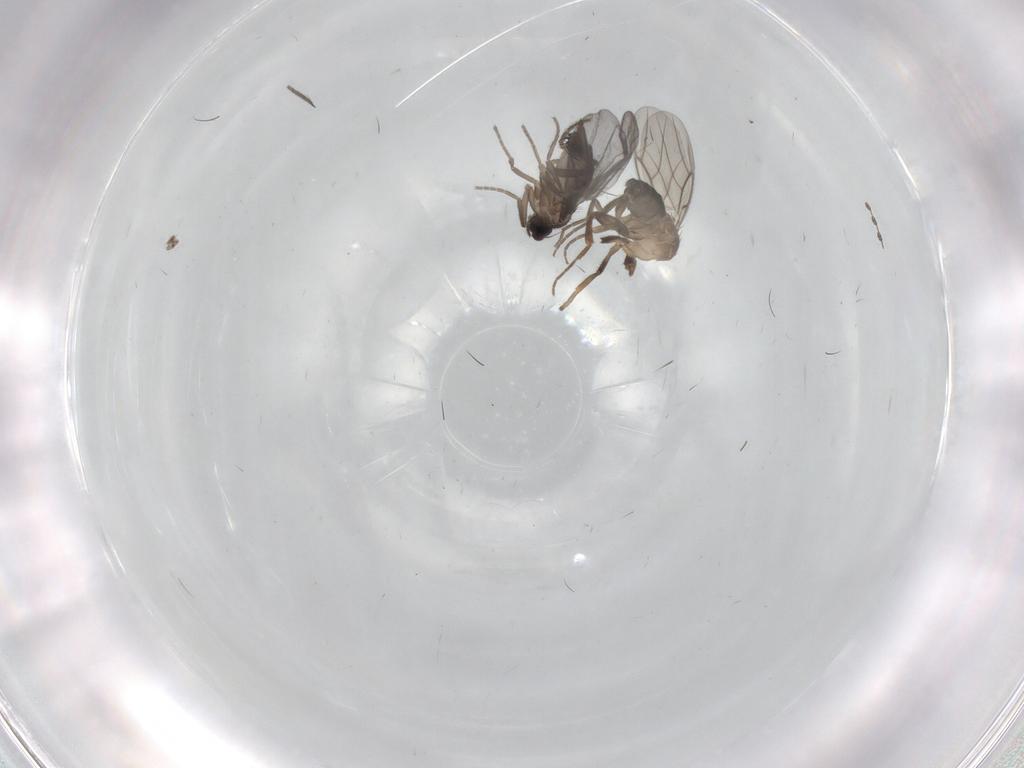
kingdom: Animalia
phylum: Arthropoda
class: Insecta
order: Diptera
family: Phoridae
